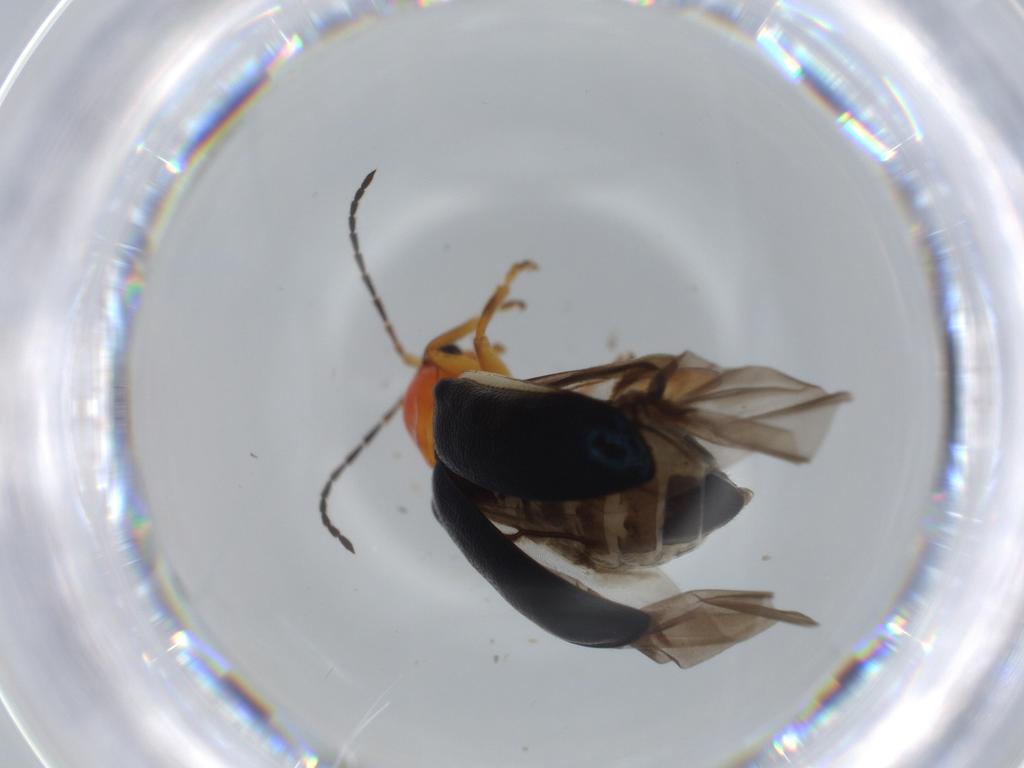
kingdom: Animalia
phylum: Arthropoda
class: Insecta
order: Coleoptera
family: Chrysomelidae
